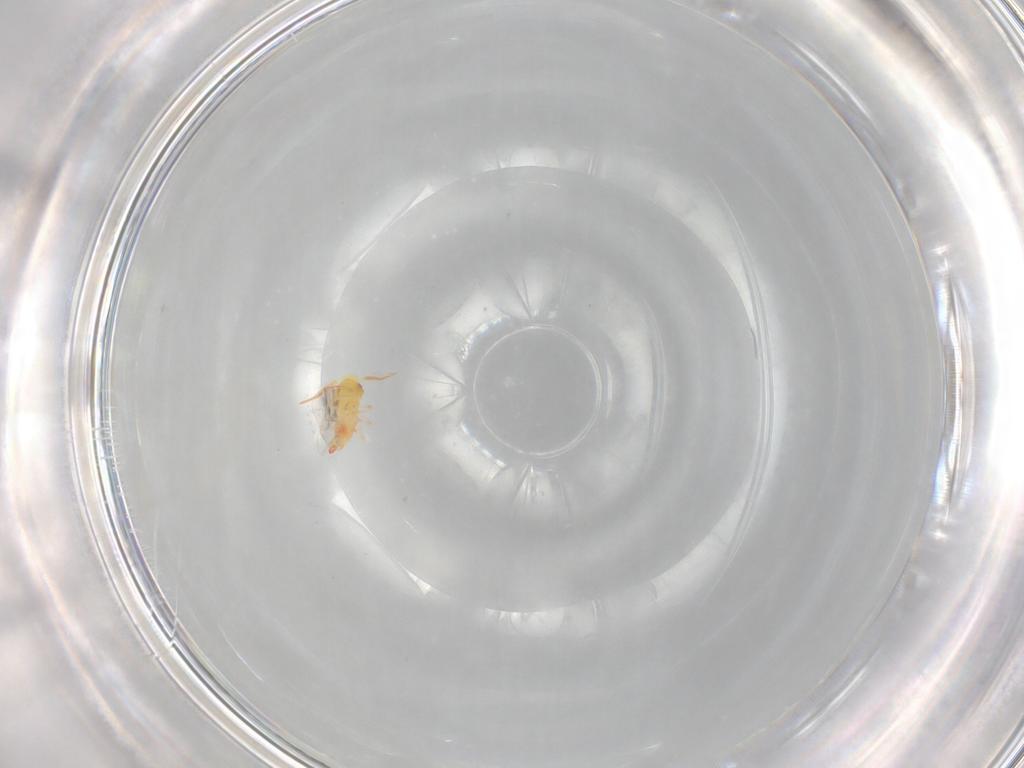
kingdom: Animalia
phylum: Arthropoda
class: Insecta
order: Hemiptera
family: Aleyrodidae
